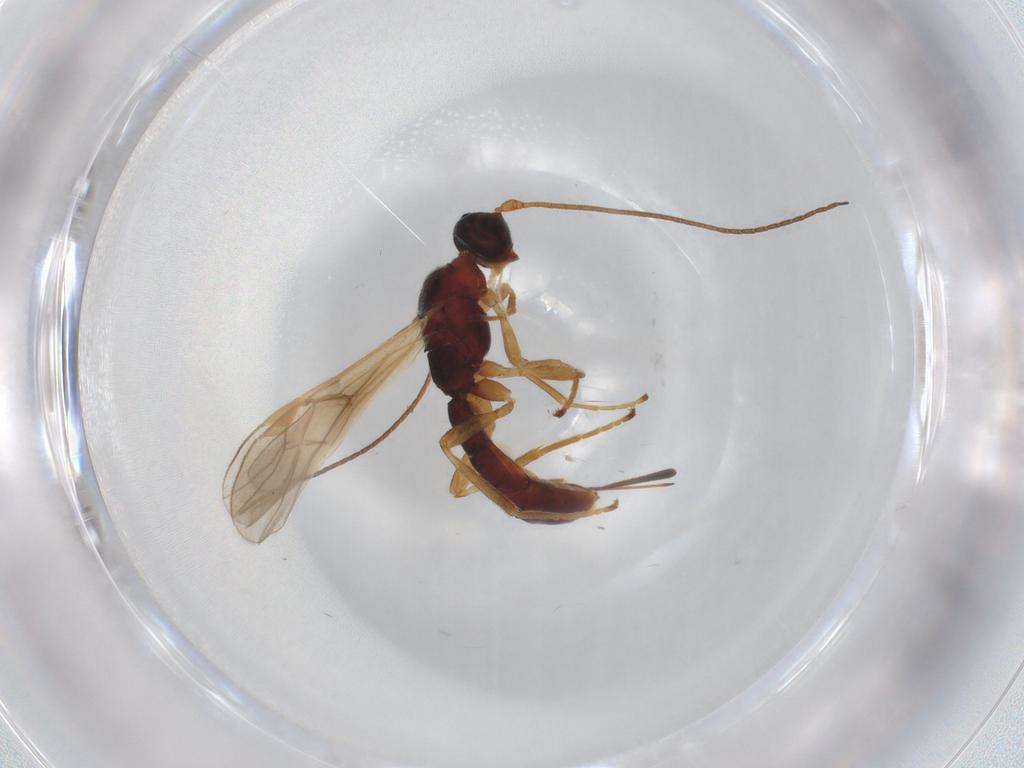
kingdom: Animalia
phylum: Arthropoda
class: Insecta
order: Hymenoptera
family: Braconidae
